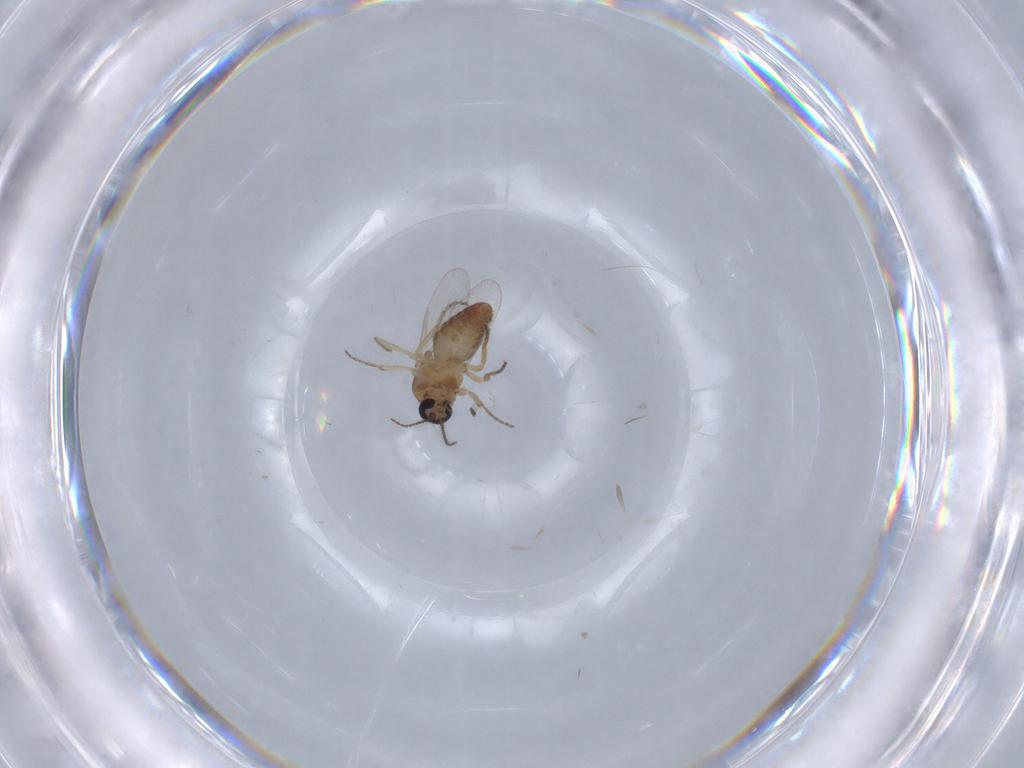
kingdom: Animalia
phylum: Arthropoda
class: Insecta
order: Diptera
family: Ceratopogonidae
